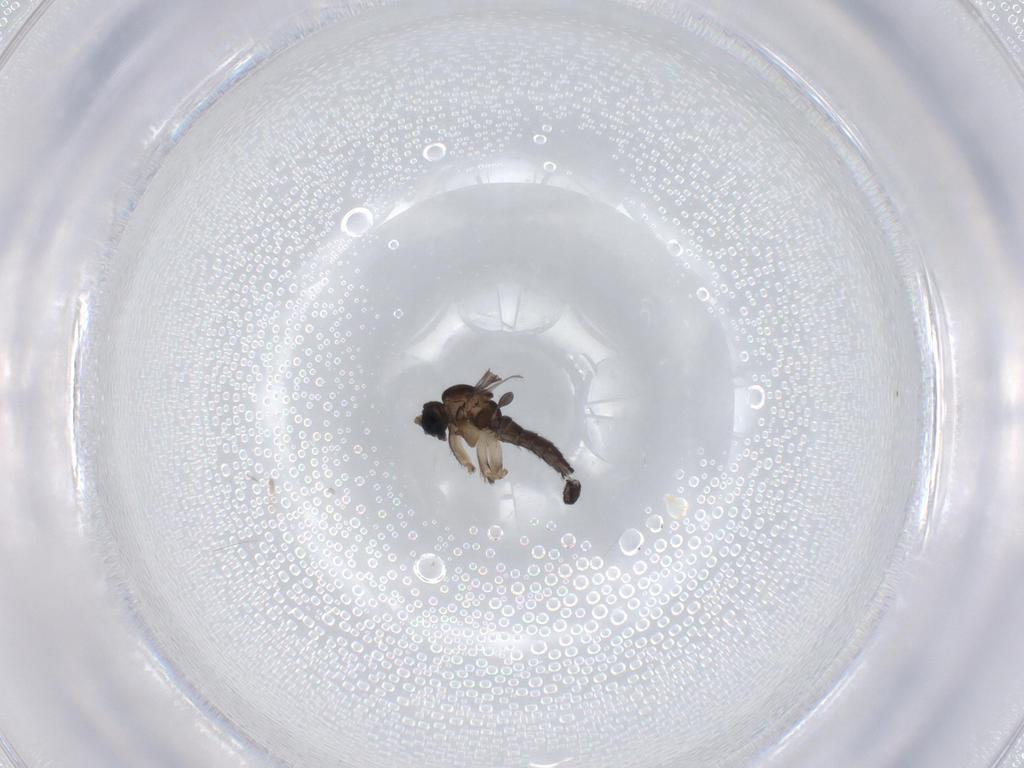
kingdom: Animalia
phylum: Arthropoda
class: Insecta
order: Diptera
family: Sciaridae
